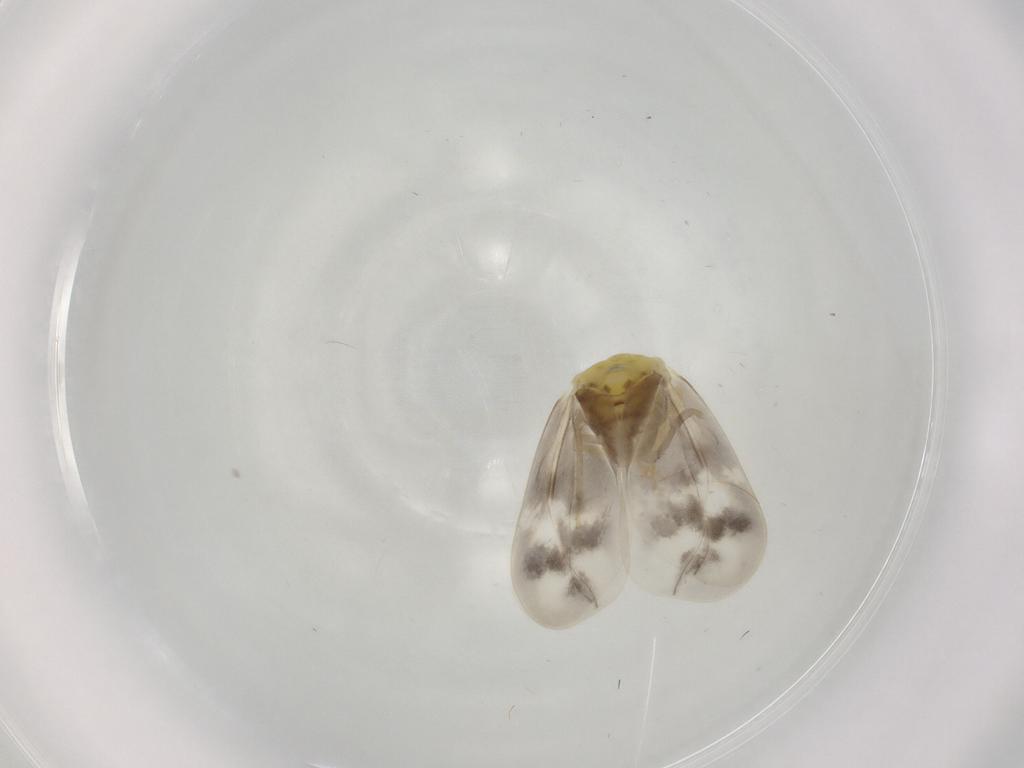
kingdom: Animalia
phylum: Arthropoda
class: Insecta
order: Hemiptera
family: Aleyrodidae
